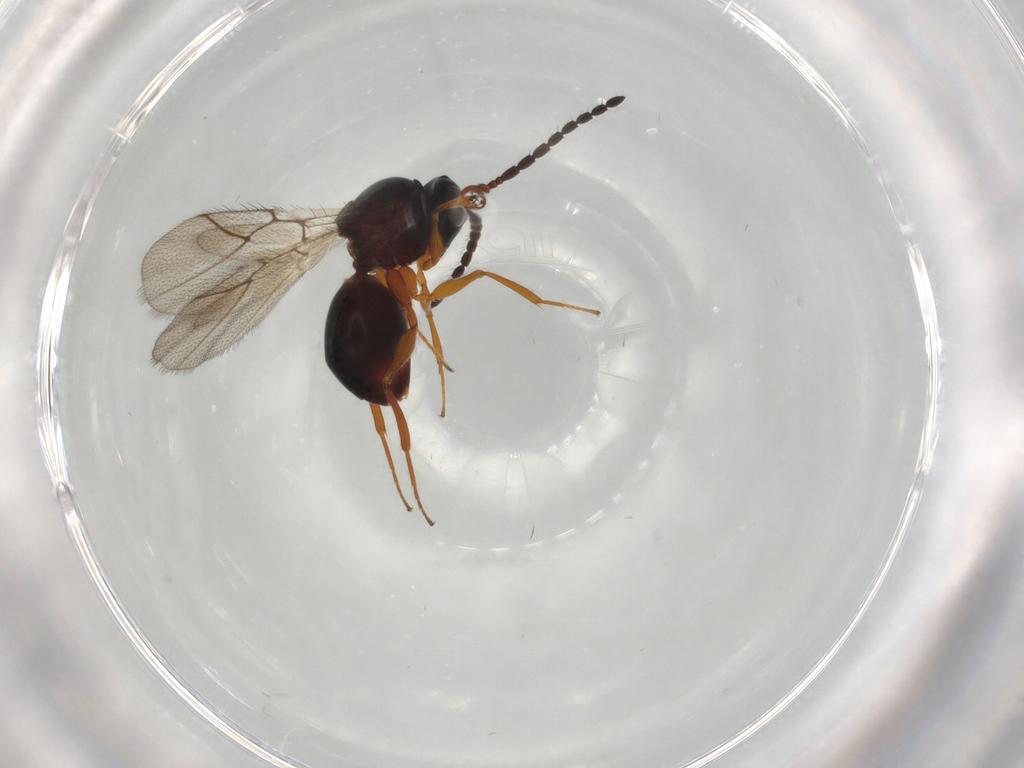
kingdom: Animalia
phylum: Arthropoda
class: Insecta
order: Hymenoptera
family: Figitidae
